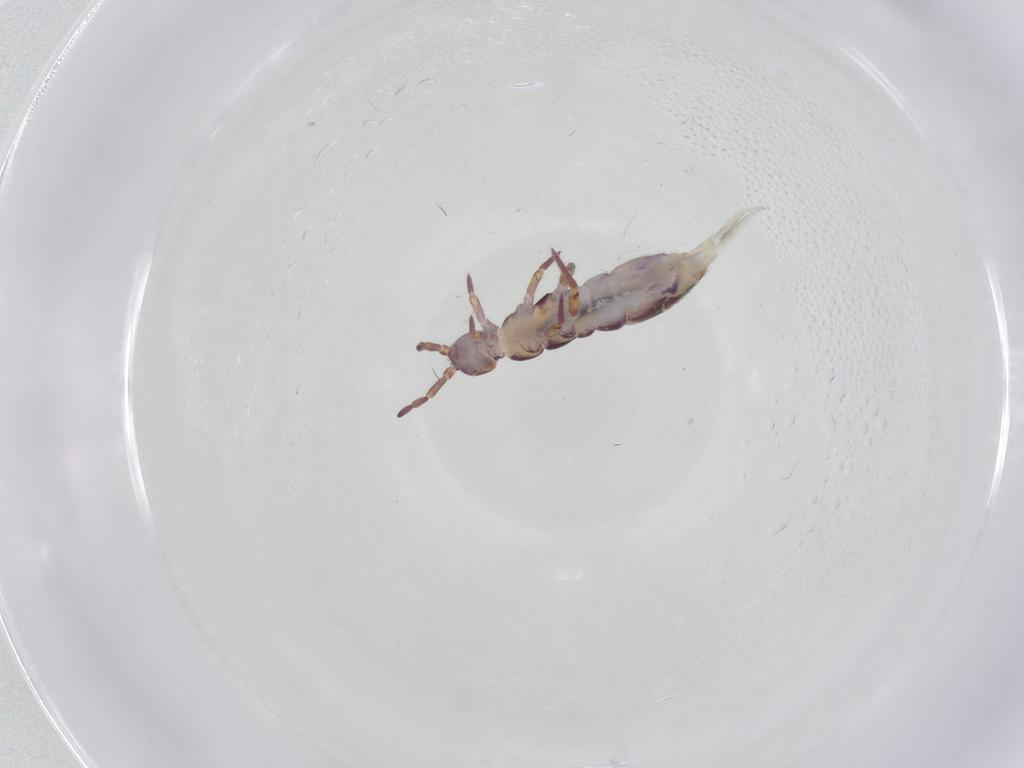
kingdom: Animalia
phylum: Arthropoda
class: Collembola
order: Entomobryomorpha
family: Isotomidae
